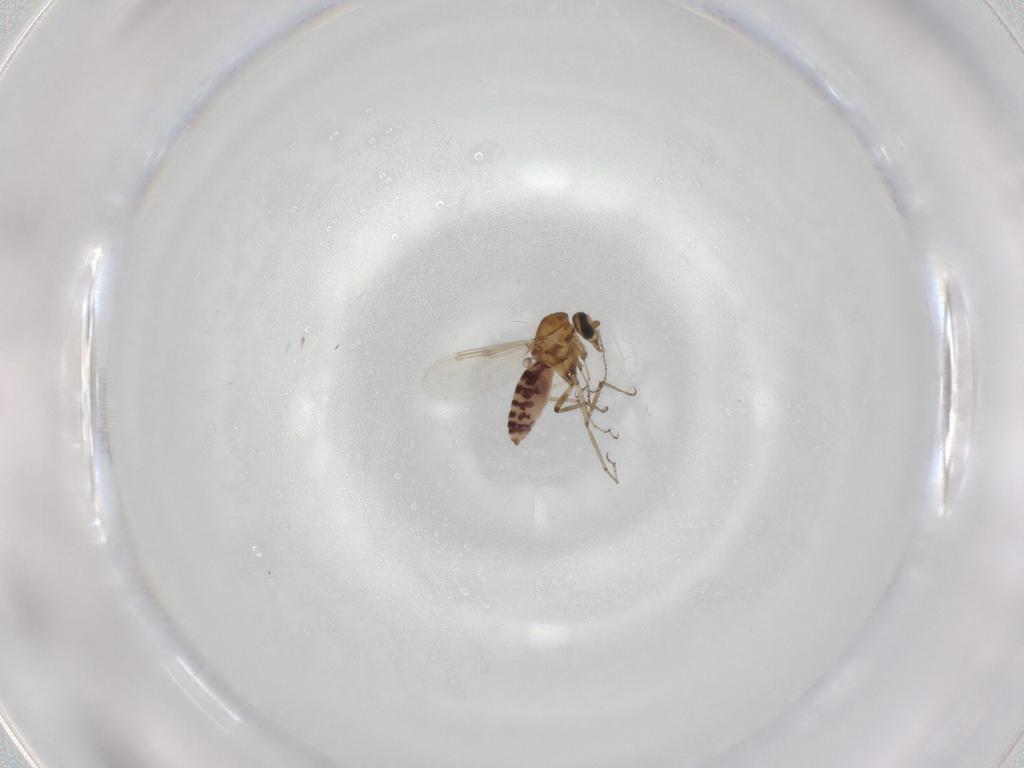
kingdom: Animalia
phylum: Arthropoda
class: Insecta
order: Diptera
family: Ceratopogonidae
